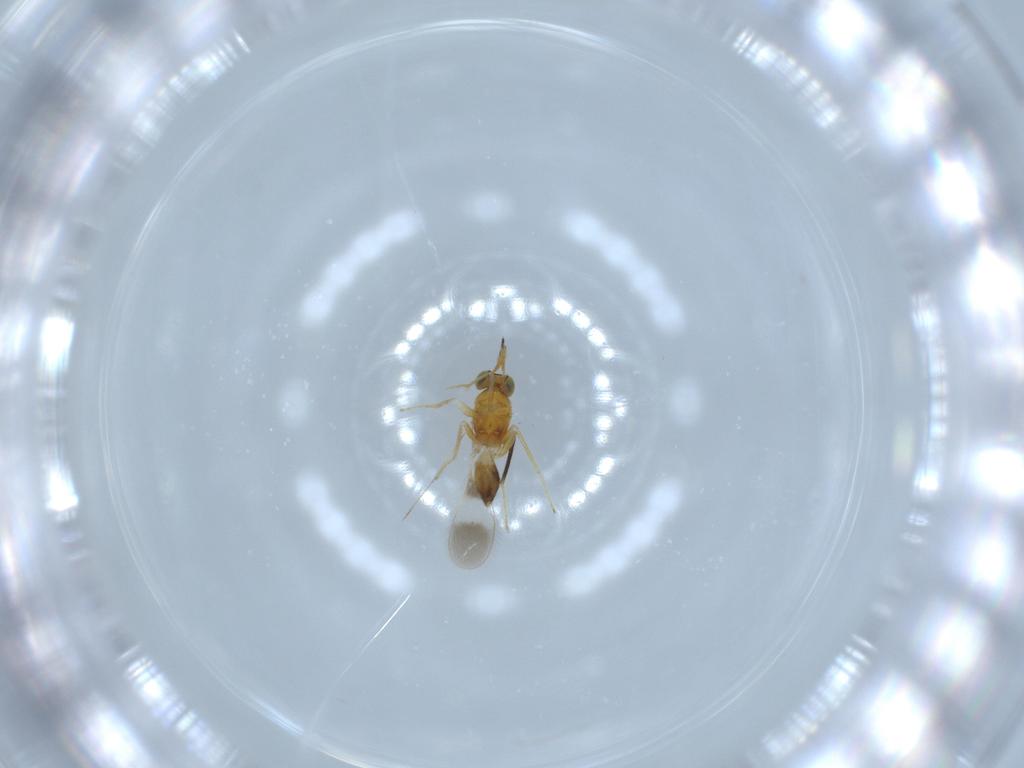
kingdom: Animalia
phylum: Arthropoda
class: Insecta
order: Hymenoptera
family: Mymaridae
